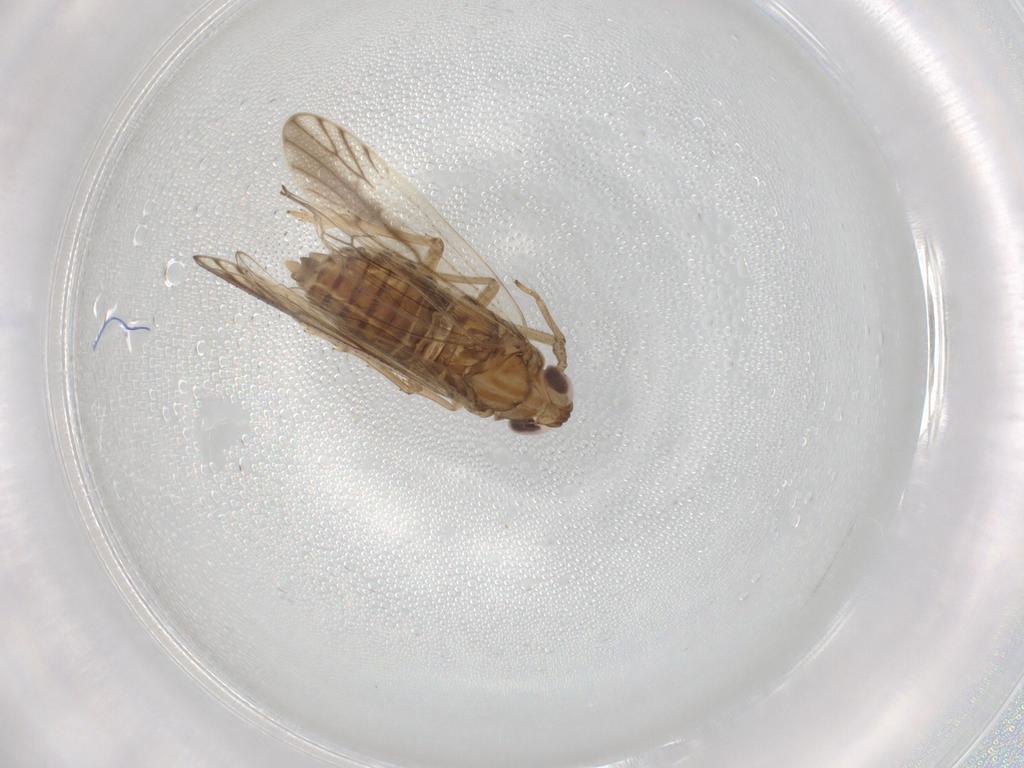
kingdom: Animalia
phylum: Arthropoda
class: Insecta
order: Hemiptera
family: Delphacidae
